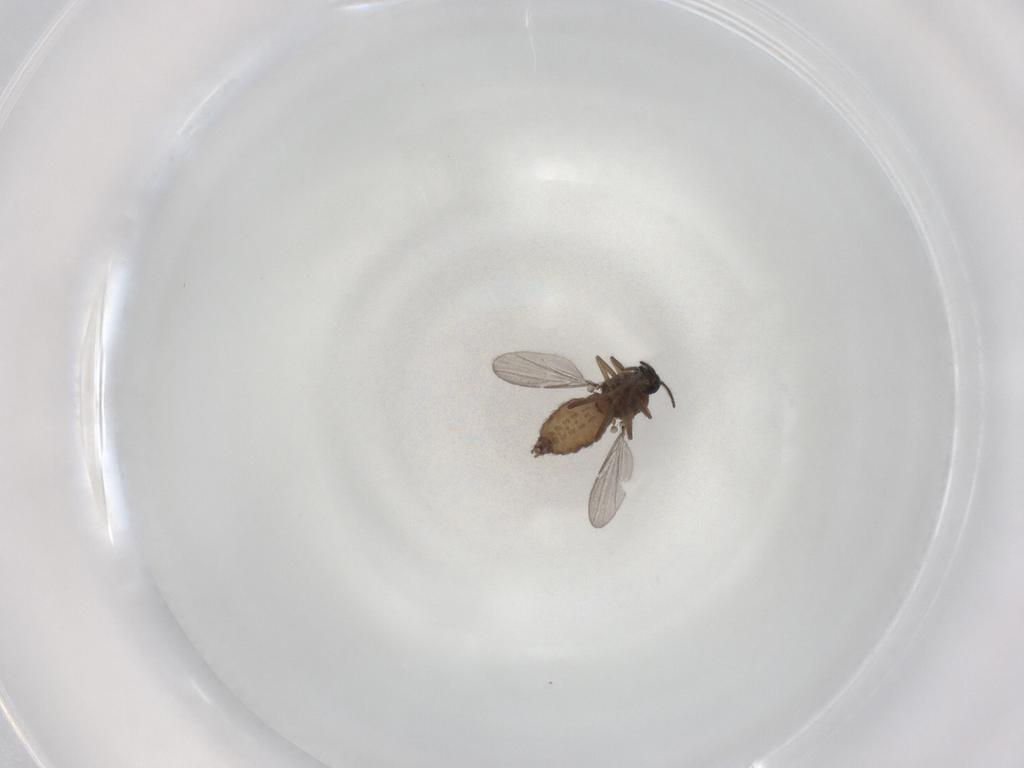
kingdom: Animalia
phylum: Arthropoda
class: Insecta
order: Diptera
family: Ceratopogonidae
